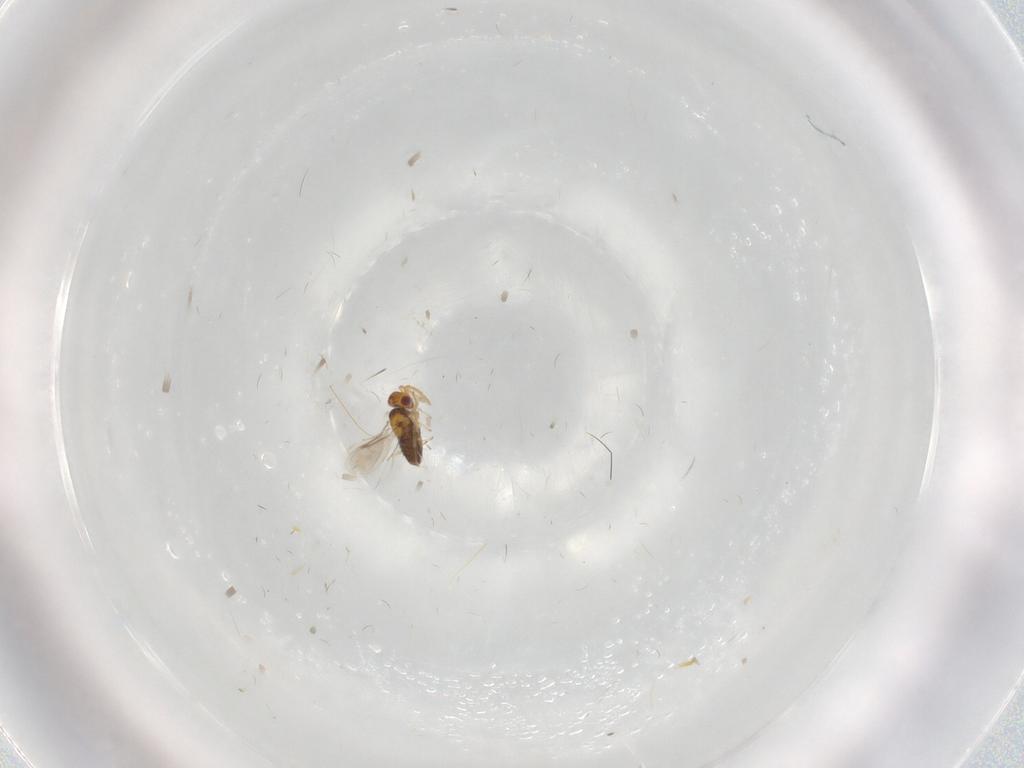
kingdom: Animalia
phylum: Arthropoda
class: Insecta
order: Hymenoptera
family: Aphelinidae
